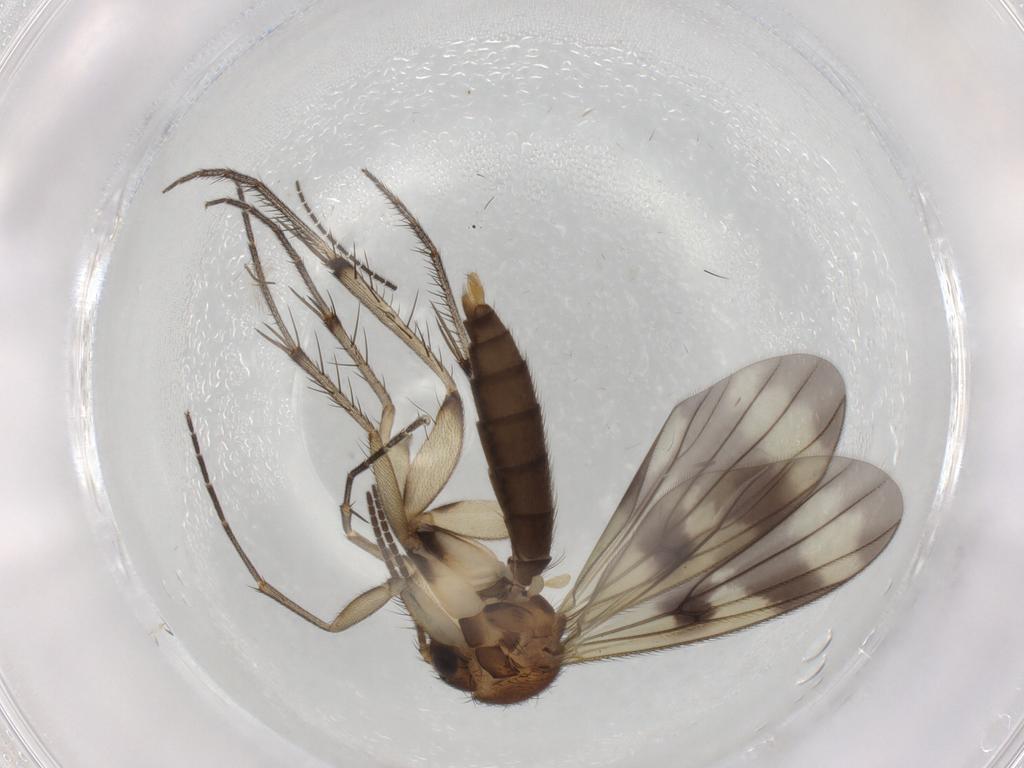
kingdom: Animalia
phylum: Arthropoda
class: Insecta
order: Diptera
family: Mycetophilidae
